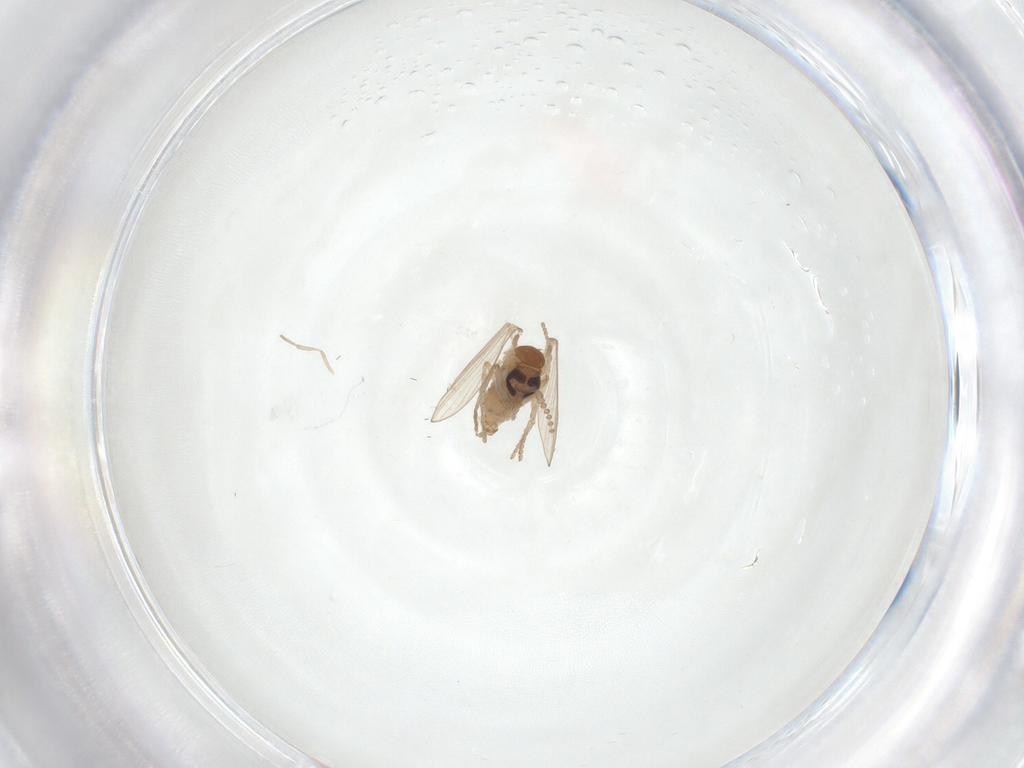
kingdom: Animalia
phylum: Arthropoda
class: Insecta
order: Diptera
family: Psychodidae
